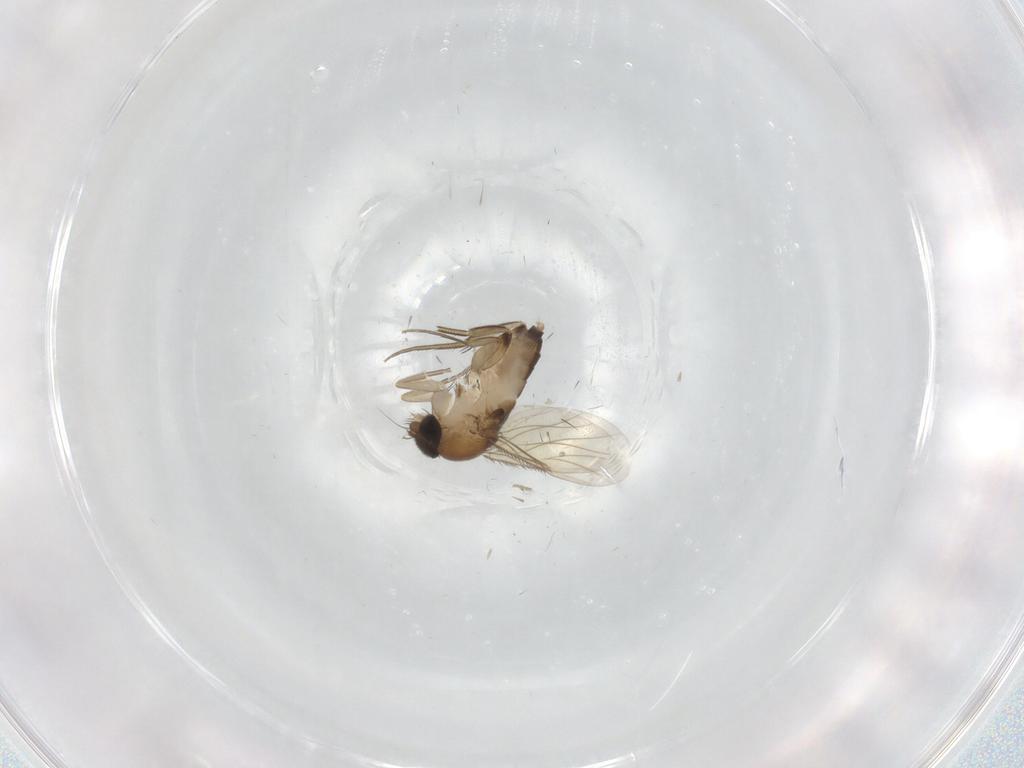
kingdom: Animalia
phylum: Arthropoda
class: Insecta
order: Diptera
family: Phoridae
